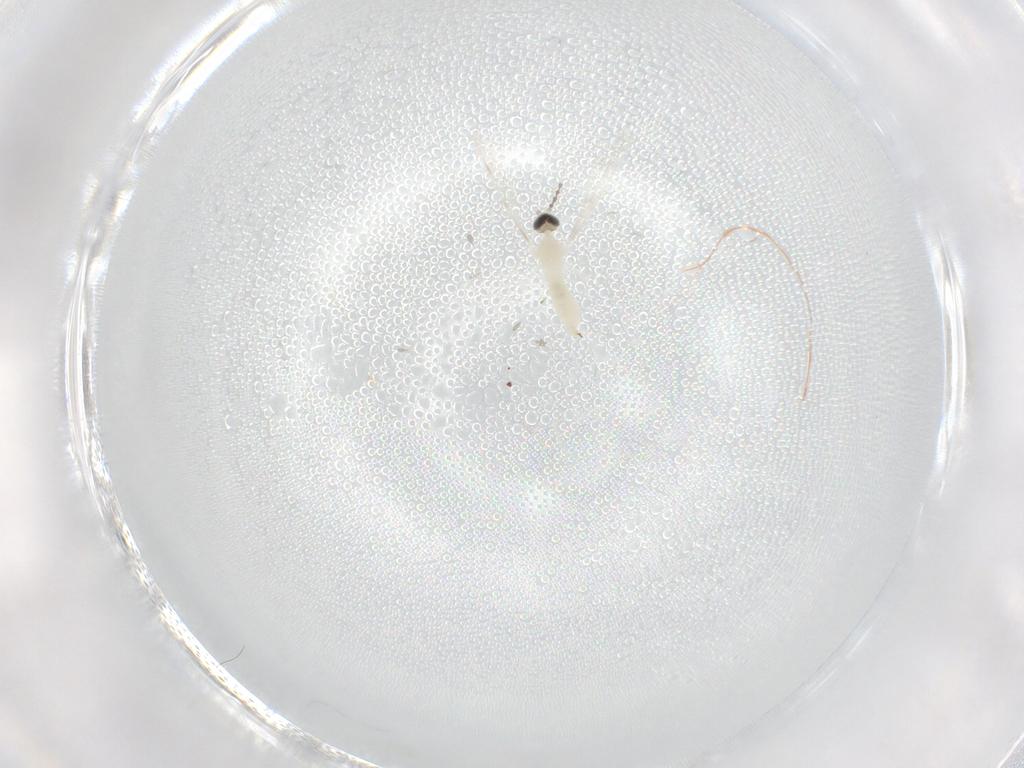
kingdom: Animalia
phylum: Arthropoda
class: Insecta
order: Diptera
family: Cecidomyiidae
